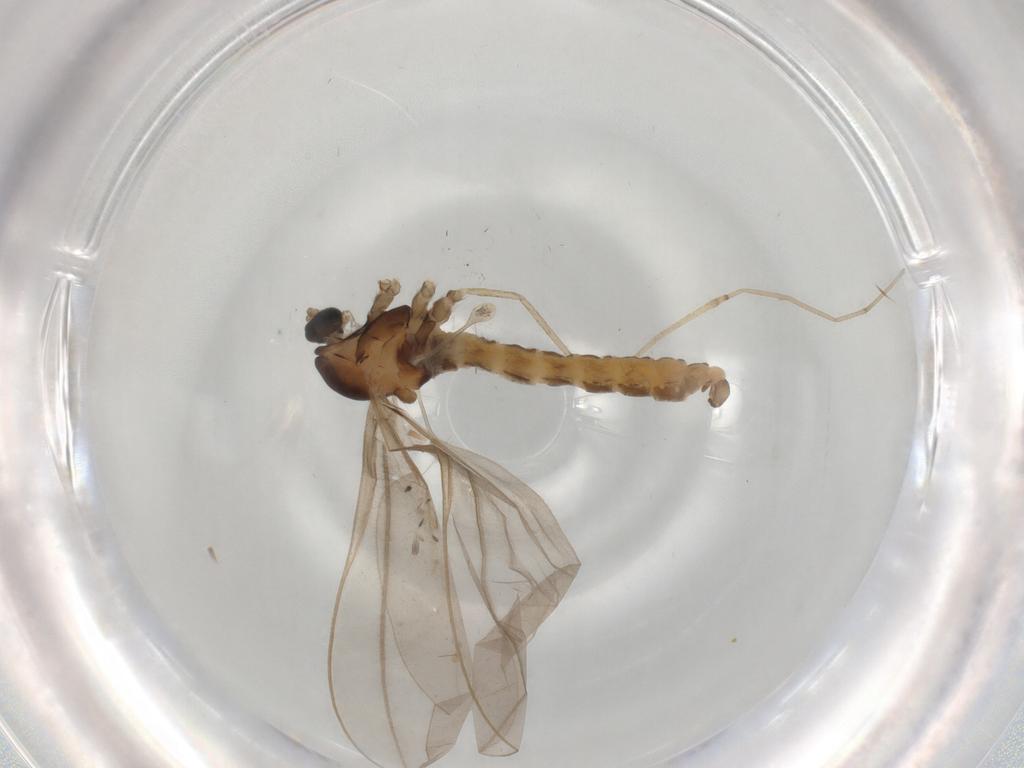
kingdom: Animalia
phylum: Arthropoda
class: Insecta
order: Diptera
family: Cecidomyiidae
